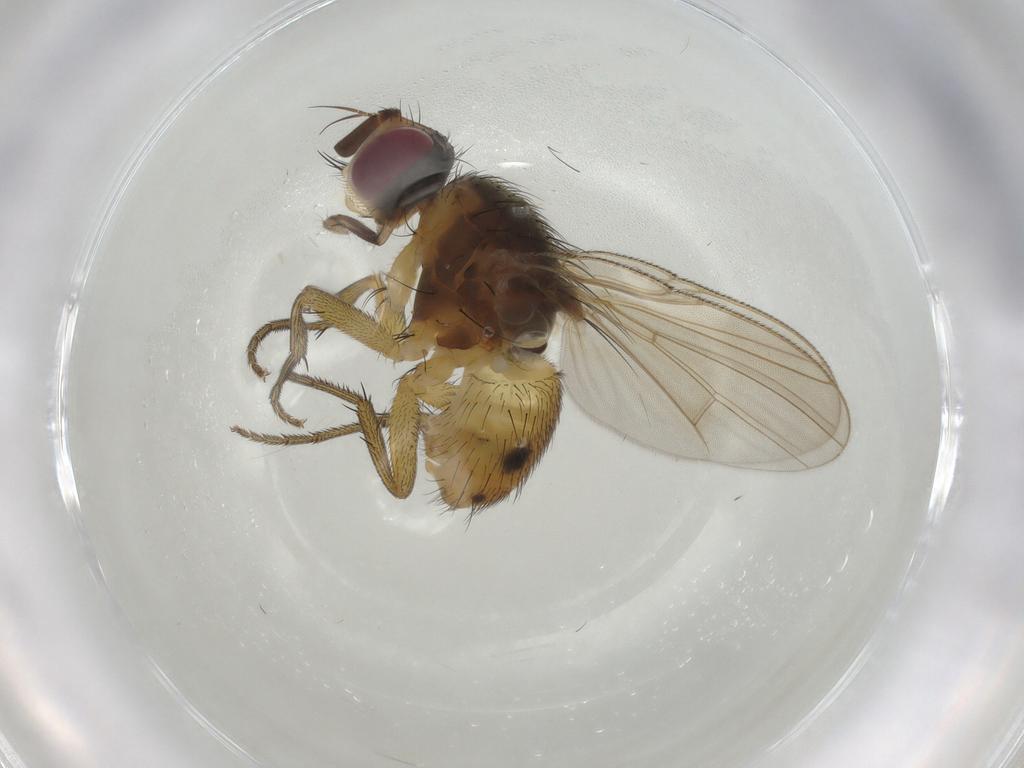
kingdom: Animalia
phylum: Arthropoda
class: Insecta
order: Diptera
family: Muscidae
